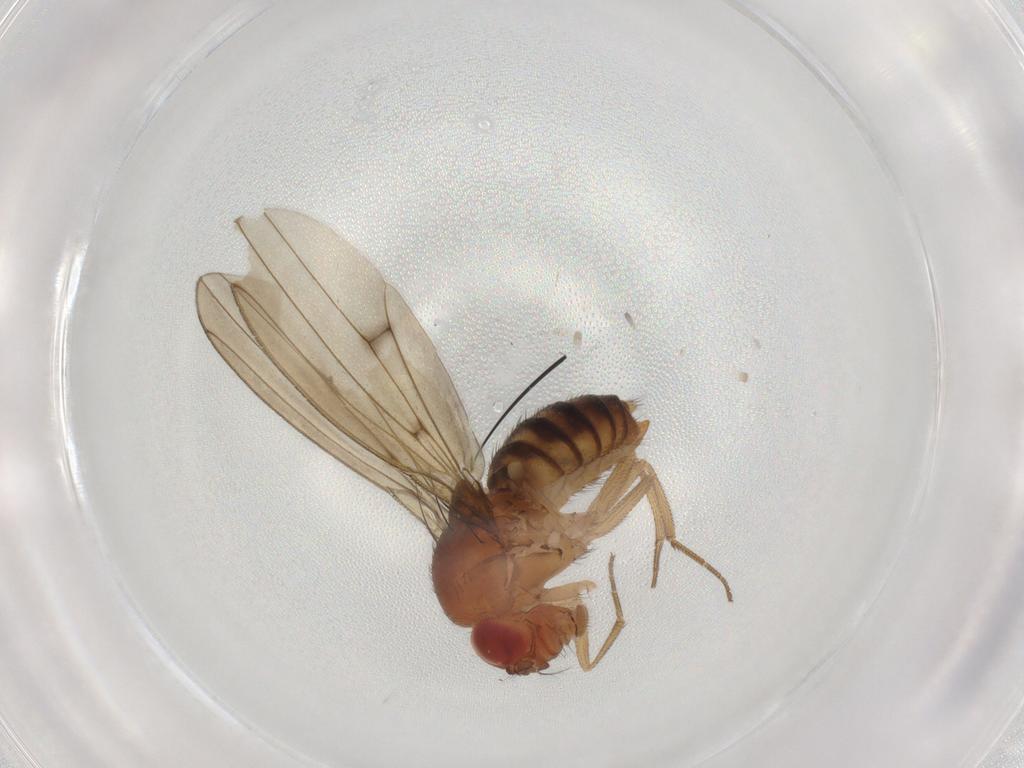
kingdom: Animalia
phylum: Arthropoda
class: Insecta
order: Diptera
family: Drosophilidae
